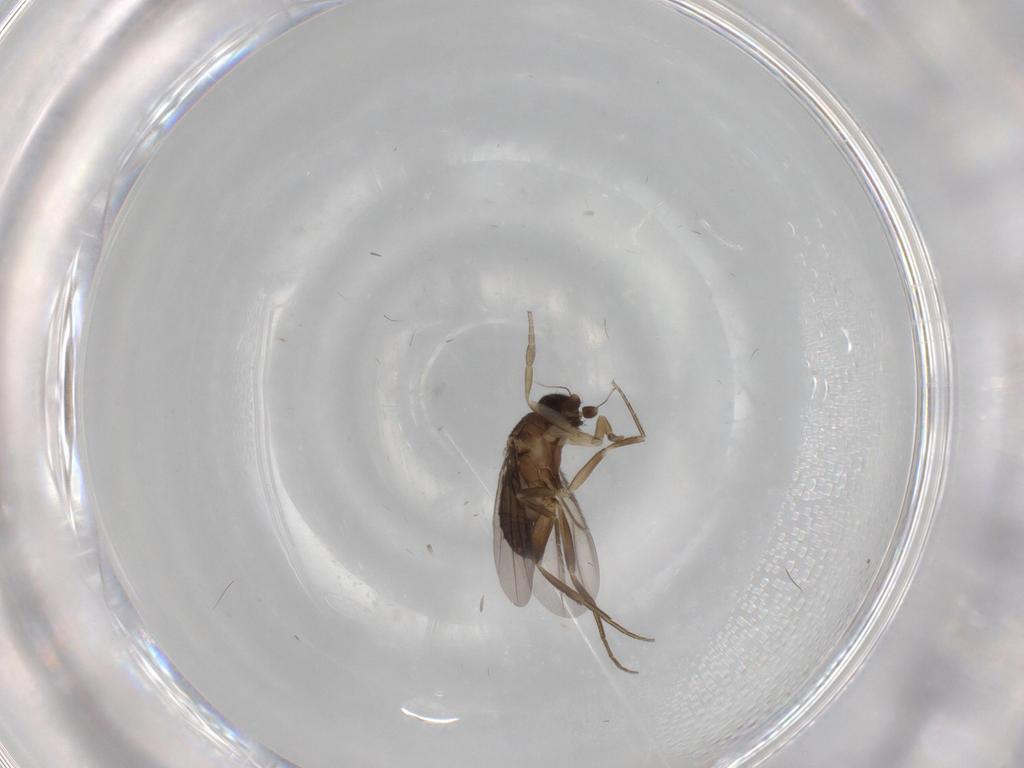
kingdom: Animalia
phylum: Arthropoda
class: Insecta
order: Diptera
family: Phoridae
